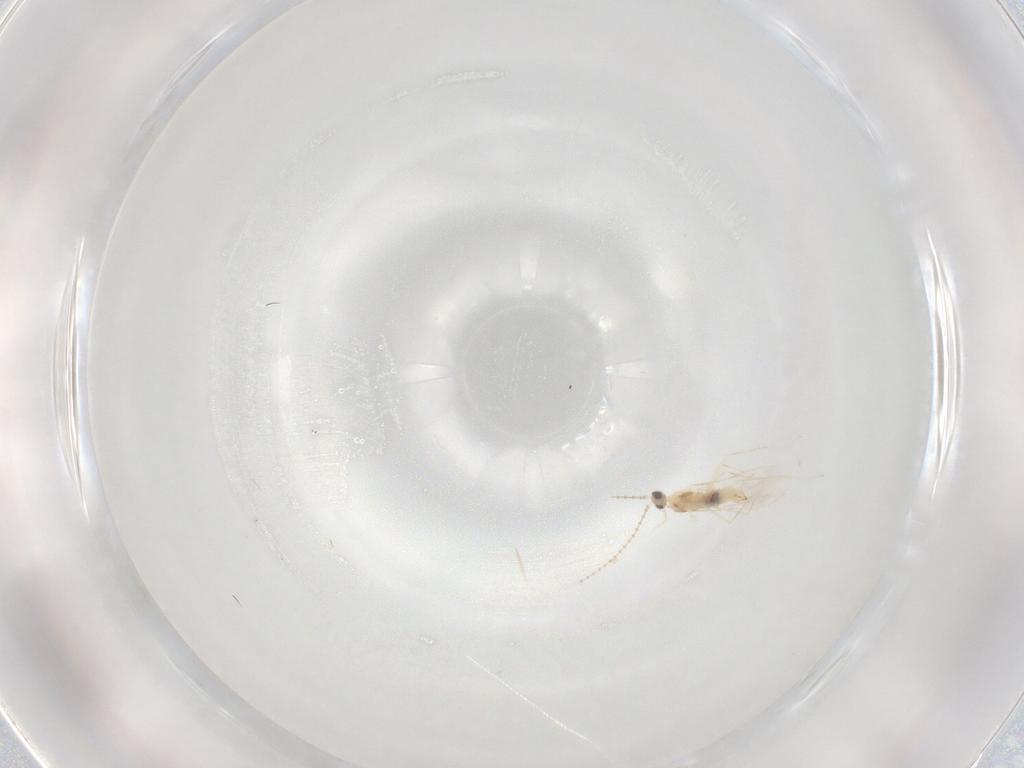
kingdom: Animalia
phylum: Arthropoda
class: Insecta
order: Diptera
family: Cecidomyiidae
